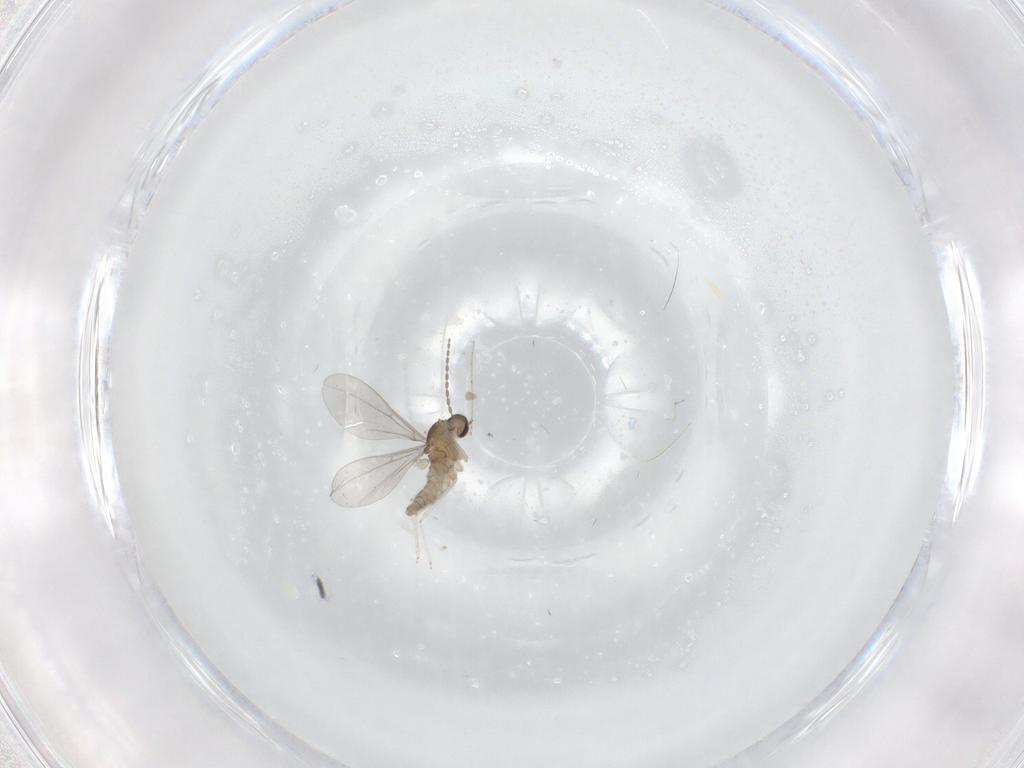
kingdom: Animalia
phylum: Arthropoda
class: Insecta
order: Diptera
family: Cecidomyiidae
